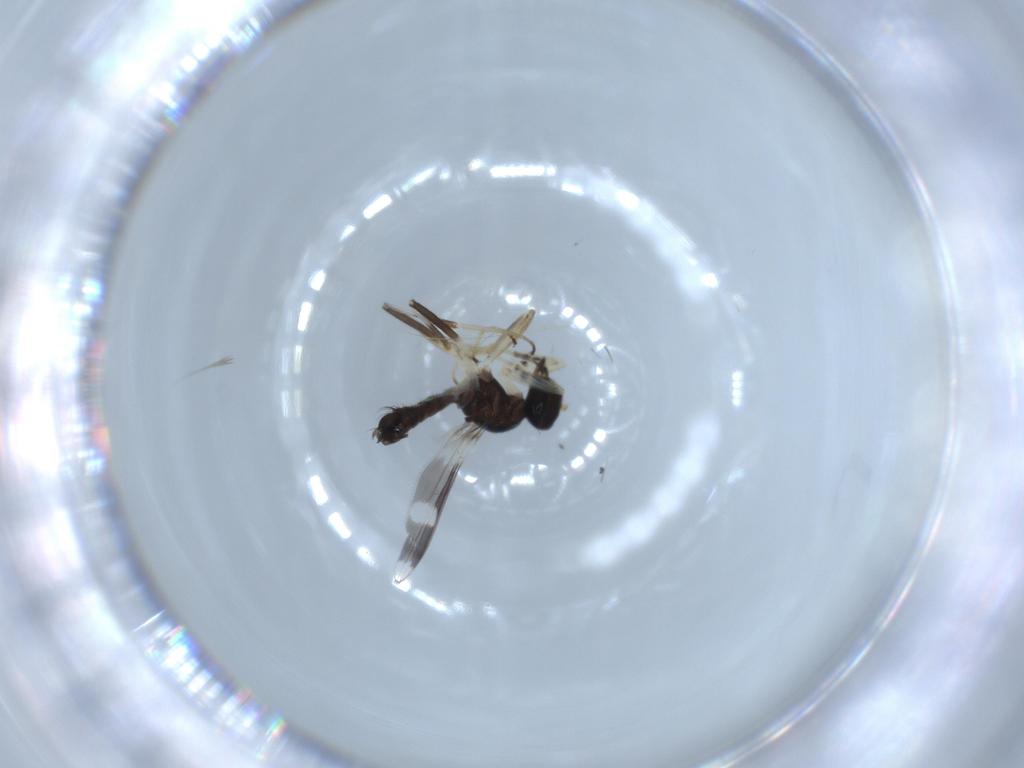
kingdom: Animalia
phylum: Arthropoda
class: Insecta
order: Diptera
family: Hybotidae
